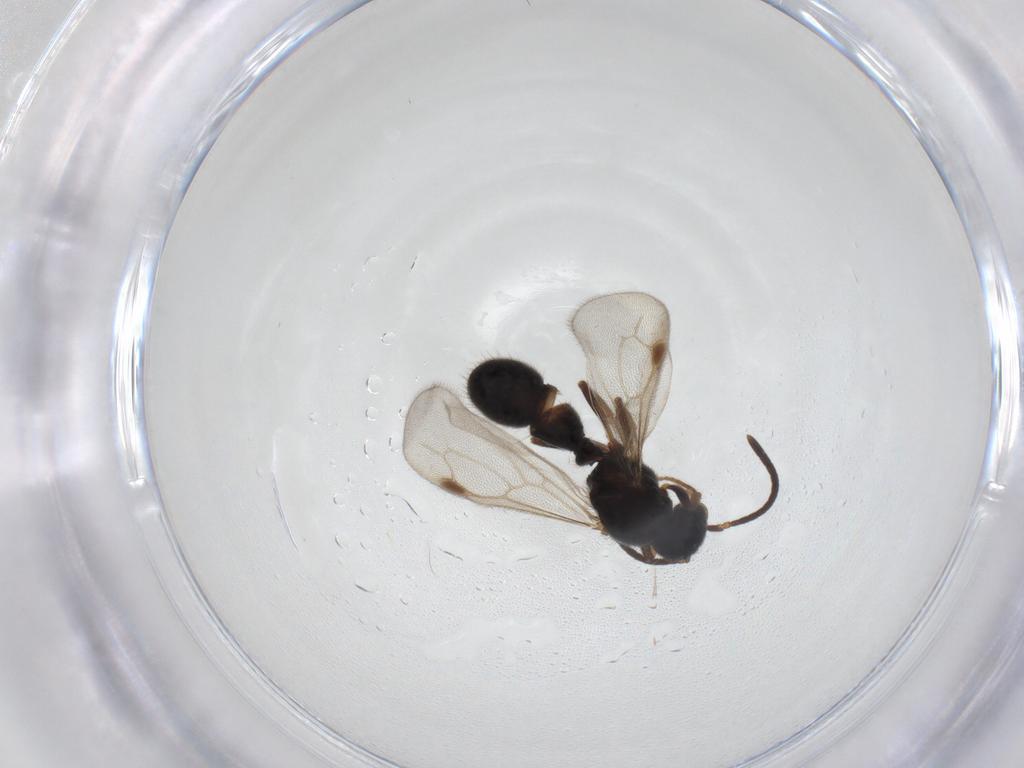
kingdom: Animalia
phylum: Arthropoda
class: Insecta
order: Hymenoptera
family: Formicidae
